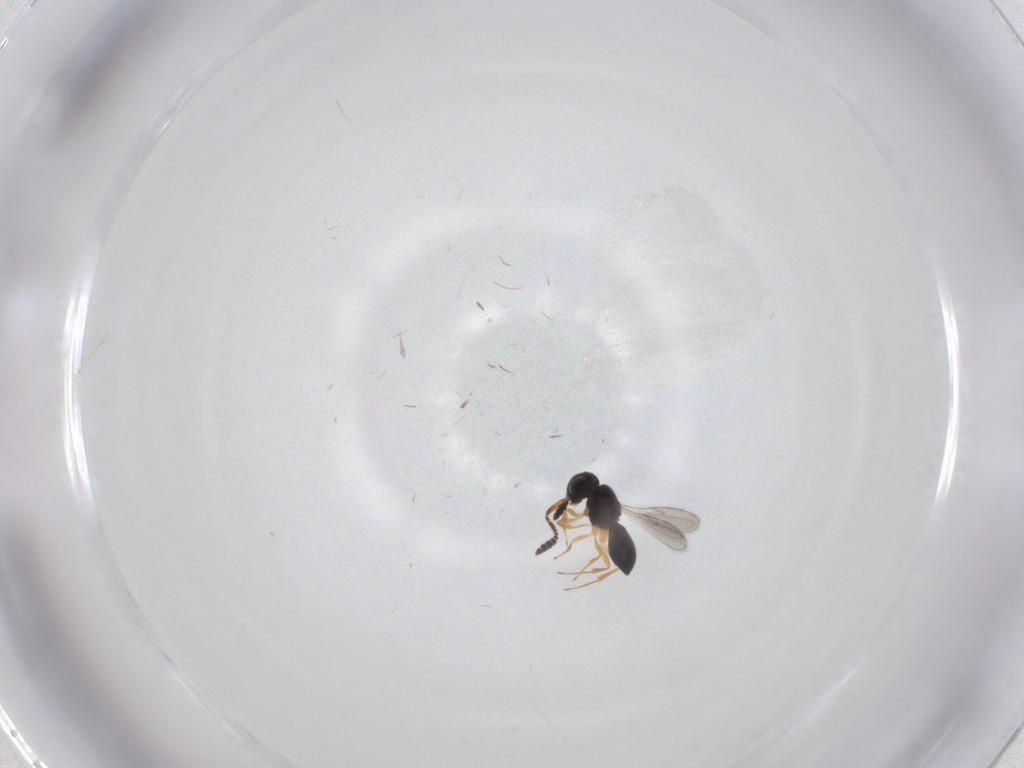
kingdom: Animalia
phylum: Arthropoda
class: Insecta
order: Hymenoptera
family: Scelionidae
